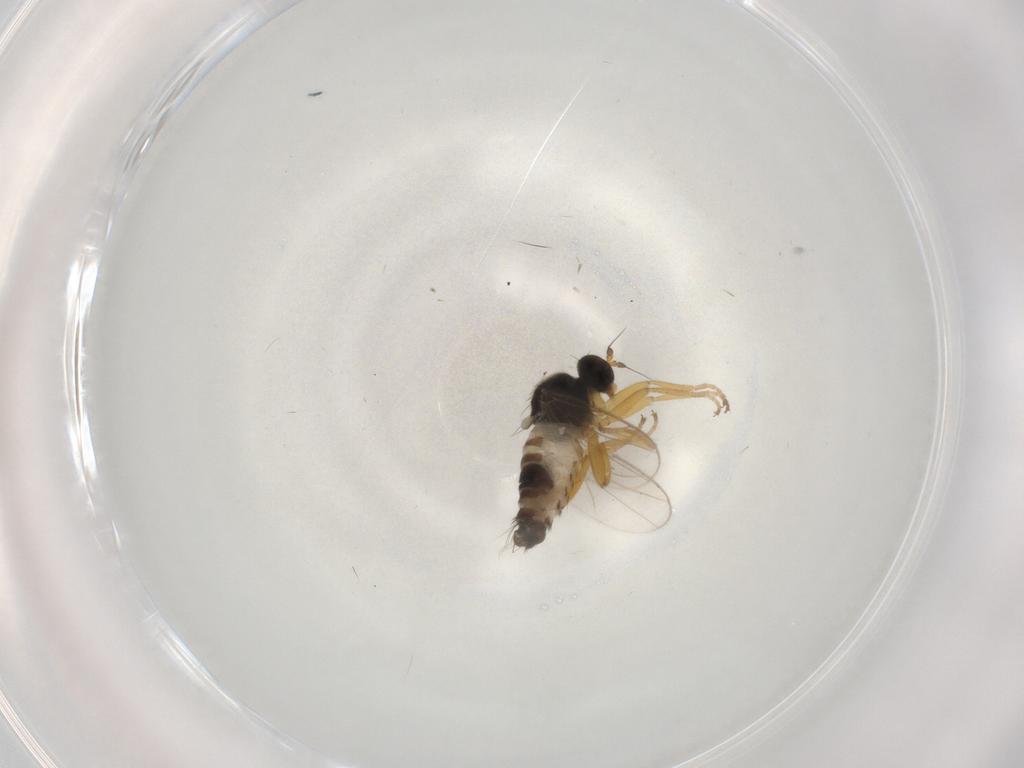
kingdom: Animalia
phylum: Arthropoda
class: Insecta
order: Diptera
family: Hybotidae
